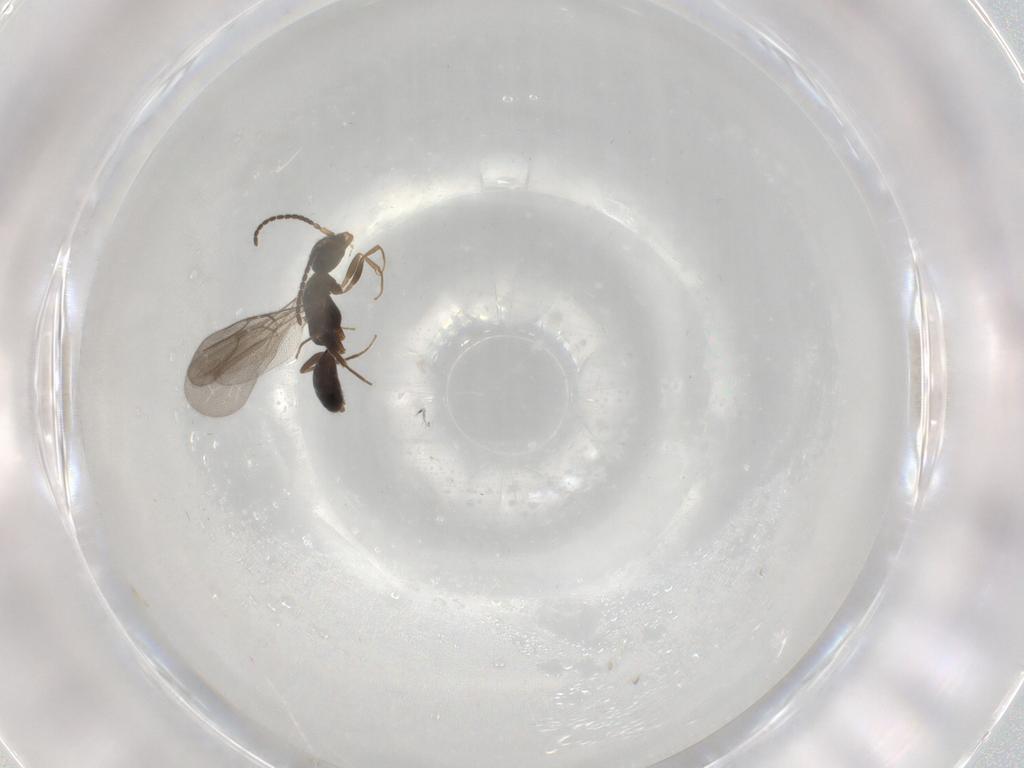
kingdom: Animalia
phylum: Arthropoda
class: Insecta
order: Hymenoptera
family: Bethylidae
